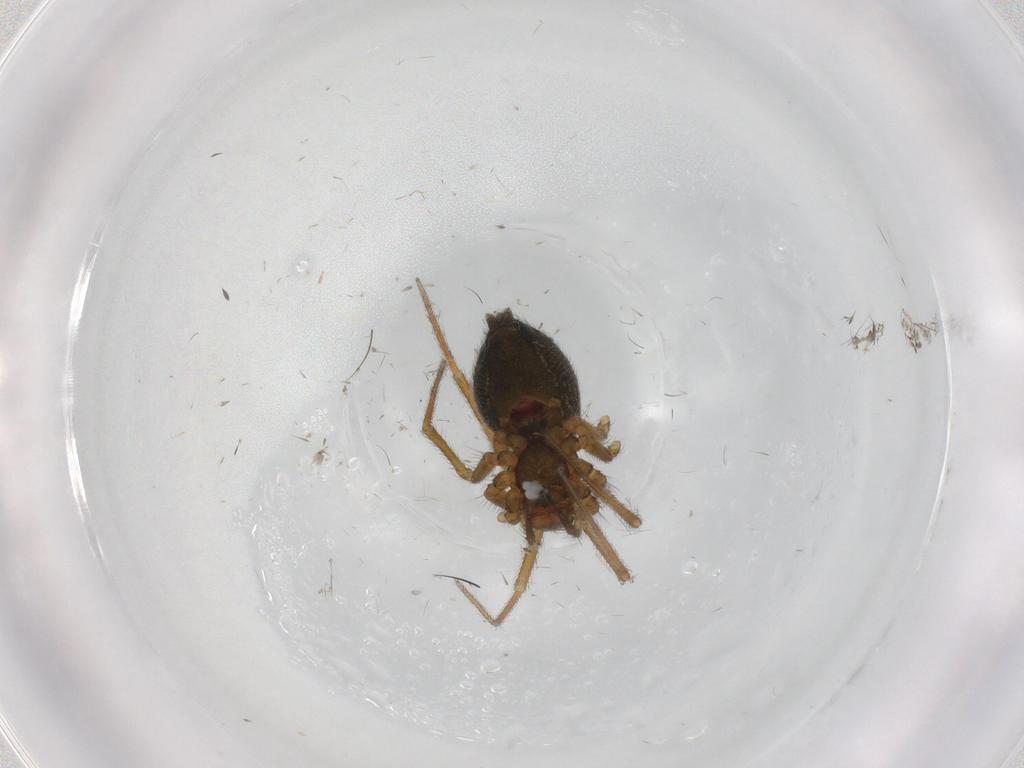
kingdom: Animalia
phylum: Arthropoda
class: Arachnida
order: Araneae
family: Linyphiidae
